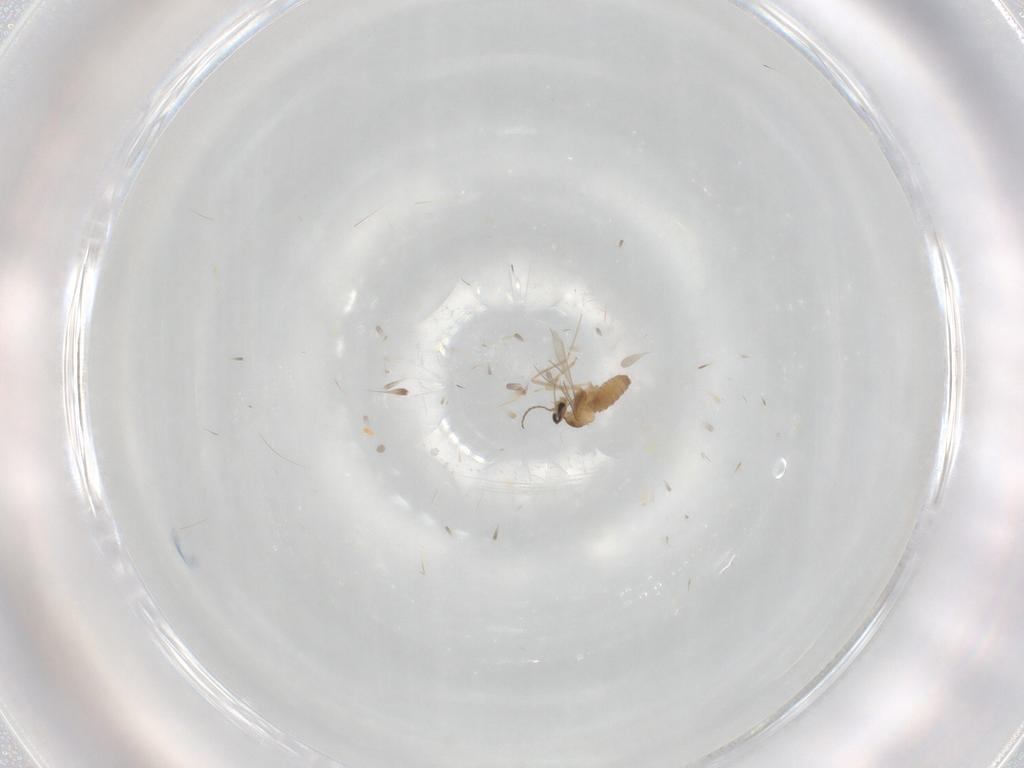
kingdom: Animalia
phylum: Arthropoda
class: Insecta
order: Diptera
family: Cecidomyiidae
